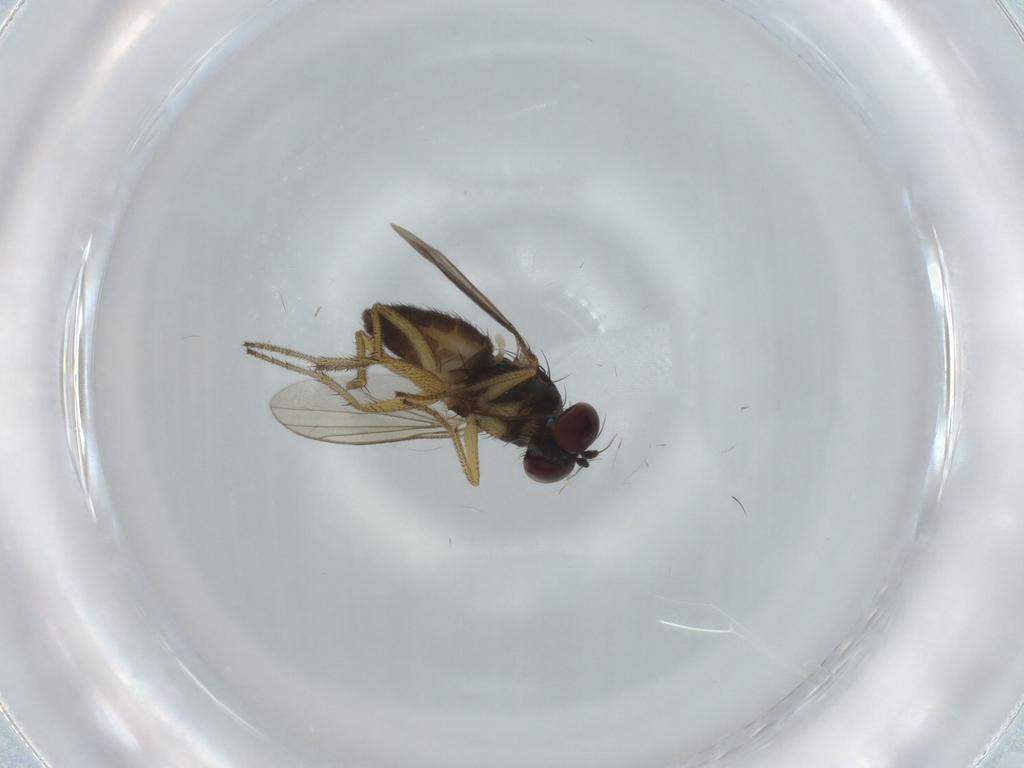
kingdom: Animalia
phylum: Arthropoda
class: Insecta
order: Diptera
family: Dolichopodidae
